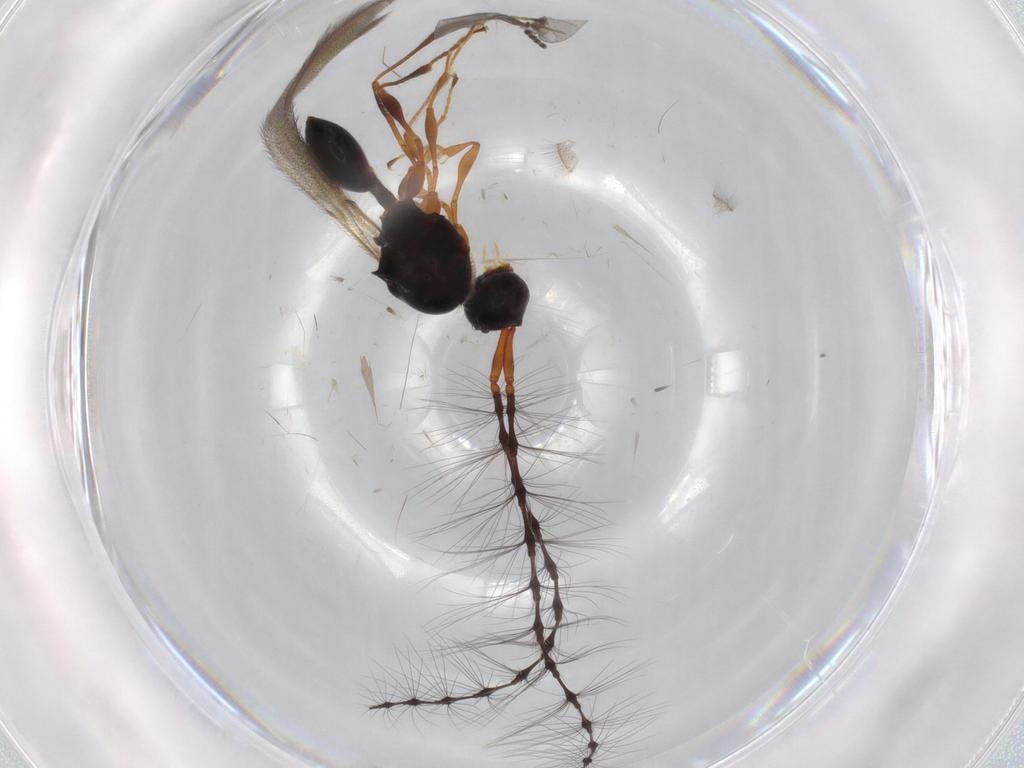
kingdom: Animalia
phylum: Arthropoda
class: Insecta
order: Hymenoptera
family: Diapriidae
